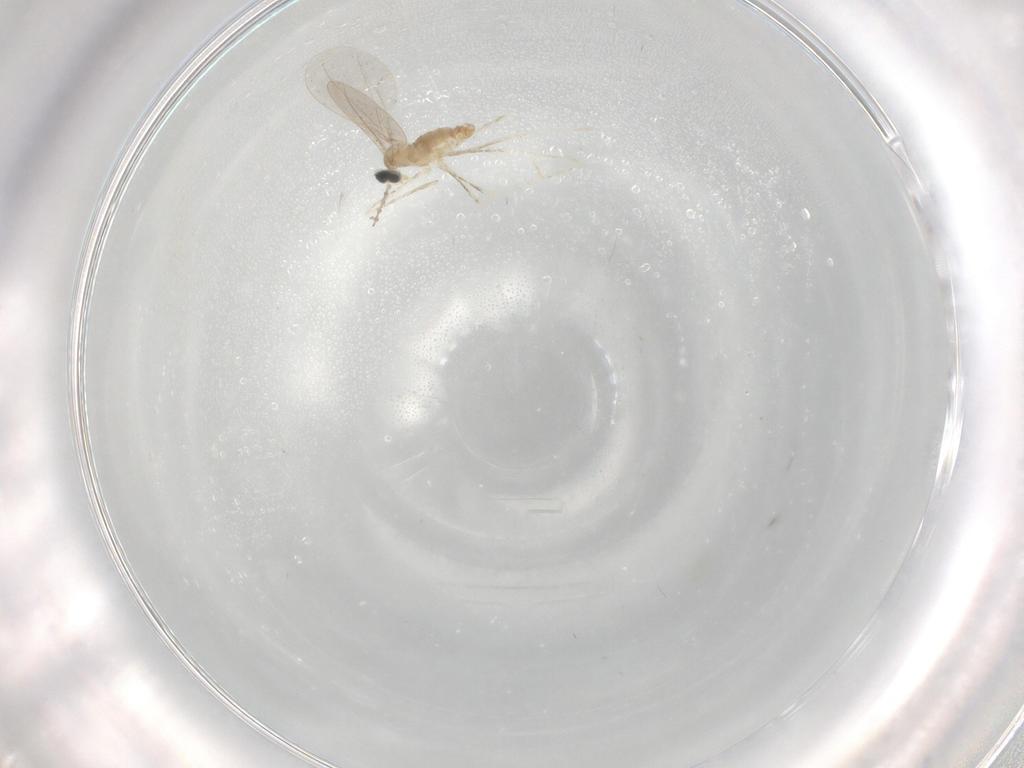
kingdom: Animalia
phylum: Arthropoda
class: Insecta
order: Diptera
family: Cecidomyiidae
